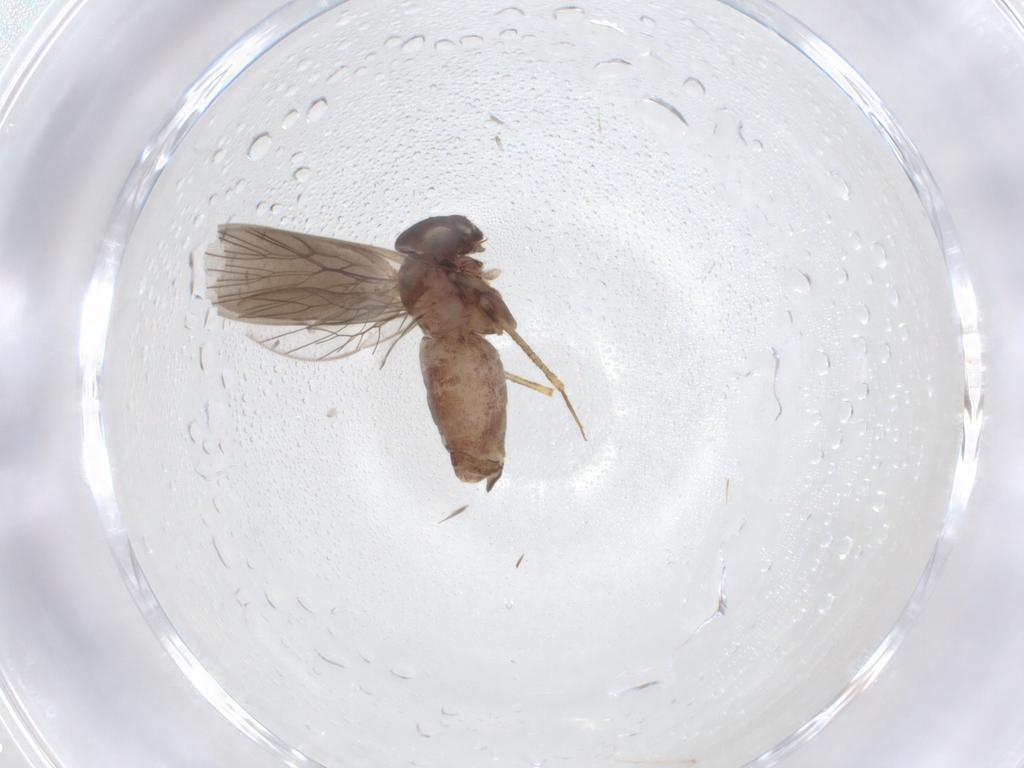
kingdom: Animalia
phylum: Arthropoda
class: Insecta
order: Psocodea
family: Lepidopsocidae
